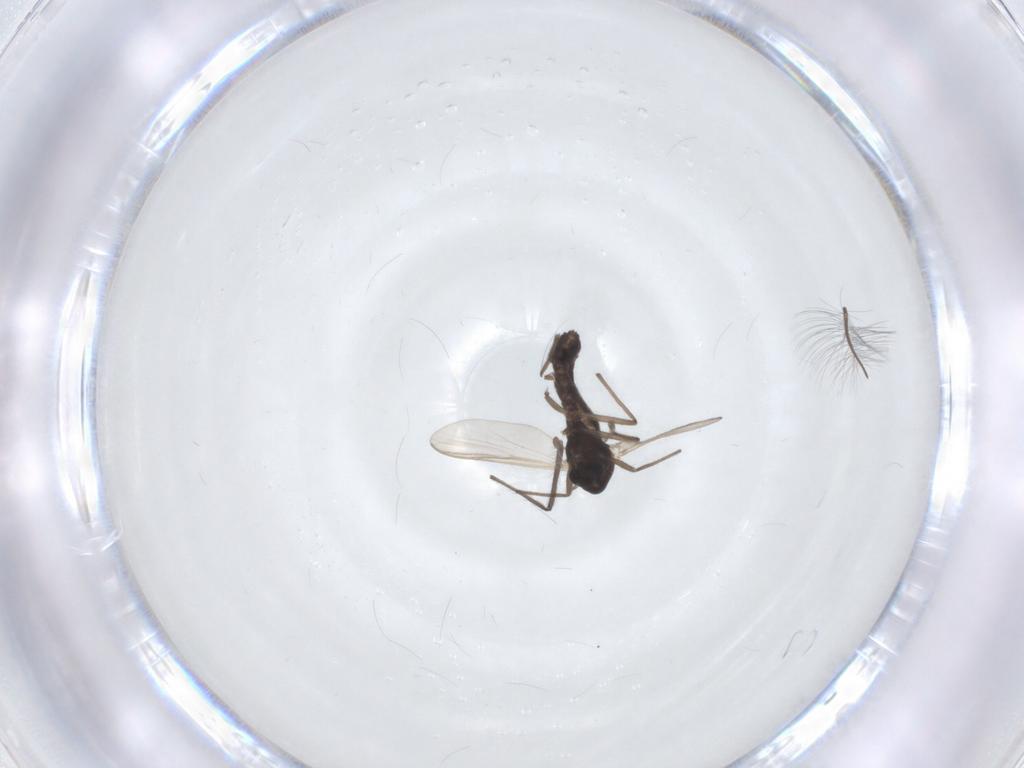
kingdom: Animalia
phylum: Arthropoda
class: Insecta
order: Diptera
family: Chironomidae
